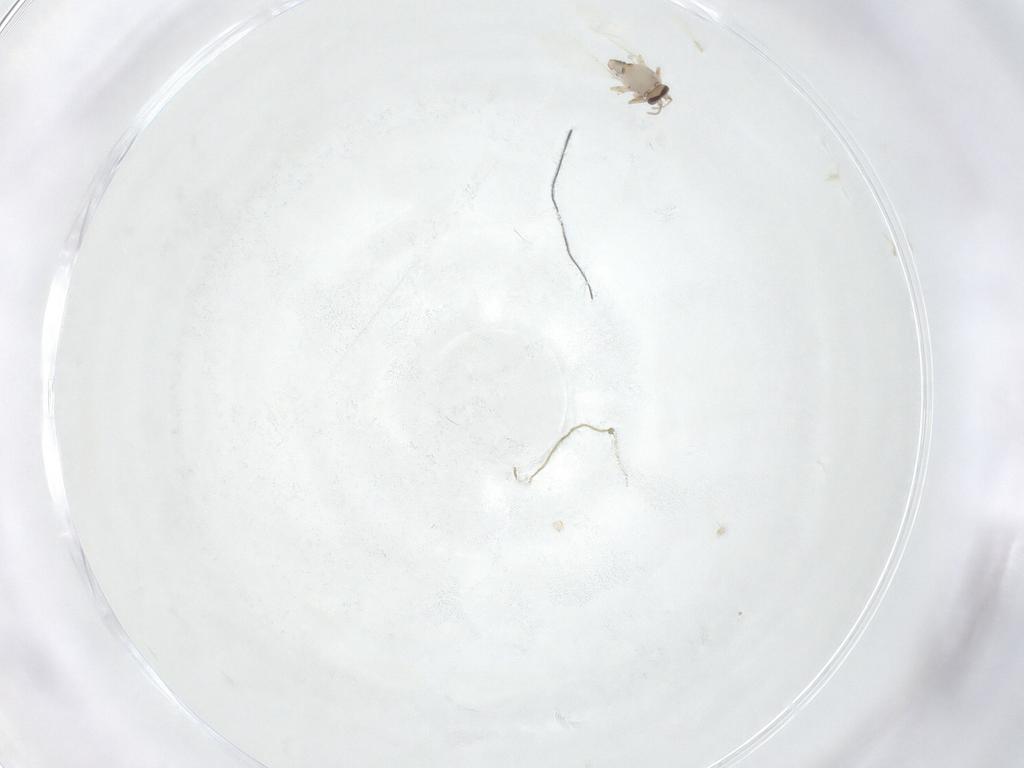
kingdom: Animalia
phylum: Arthropoda
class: Insecta
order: Diptera
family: Ceratopogonidae
